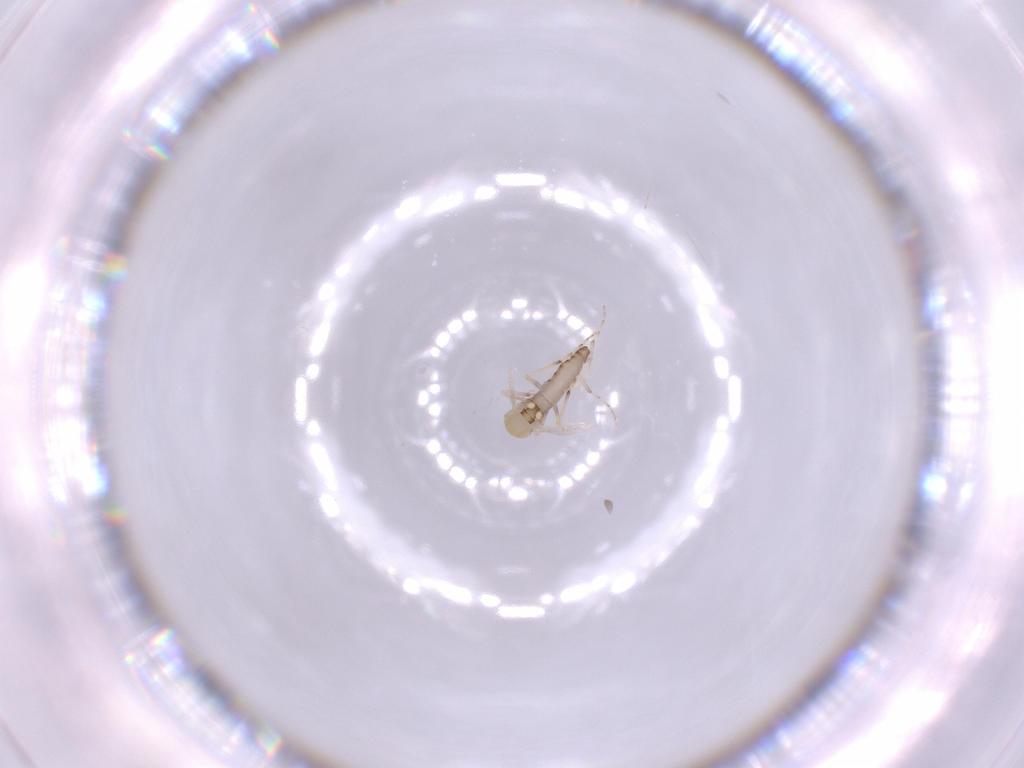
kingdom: Animalia
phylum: Arthropoda
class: Insecta
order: Diptera
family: Ceratopogonidae
